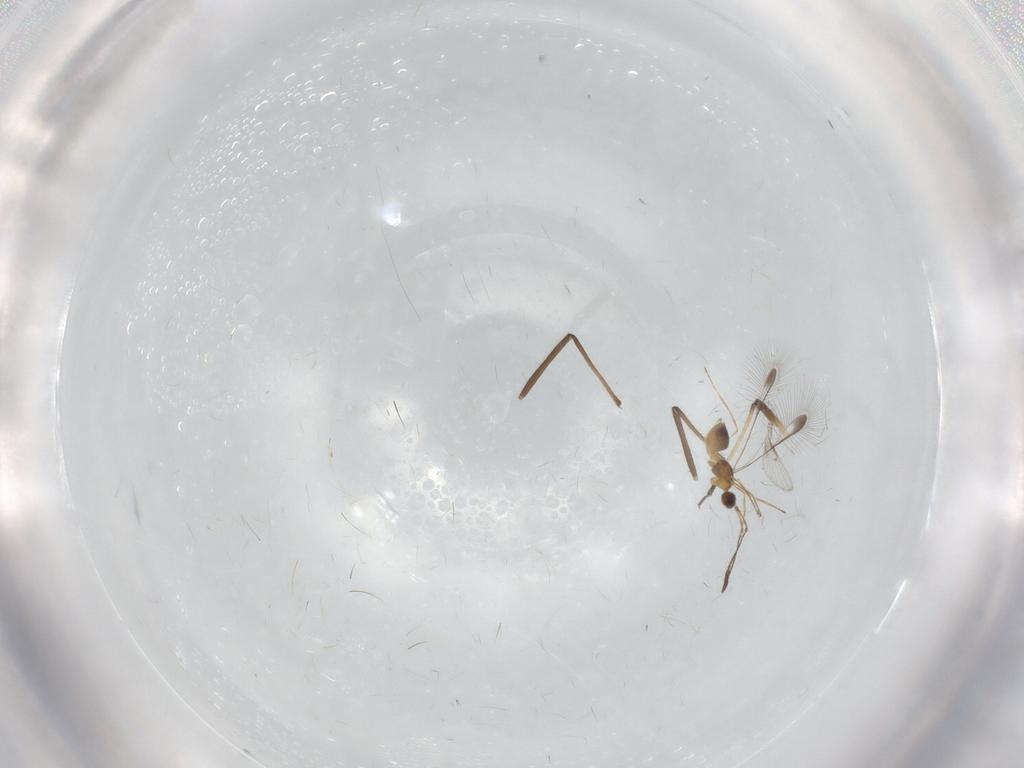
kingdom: Animalia
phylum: Arthropoda
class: Insecta
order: Hymenoptera
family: Mymaridae
